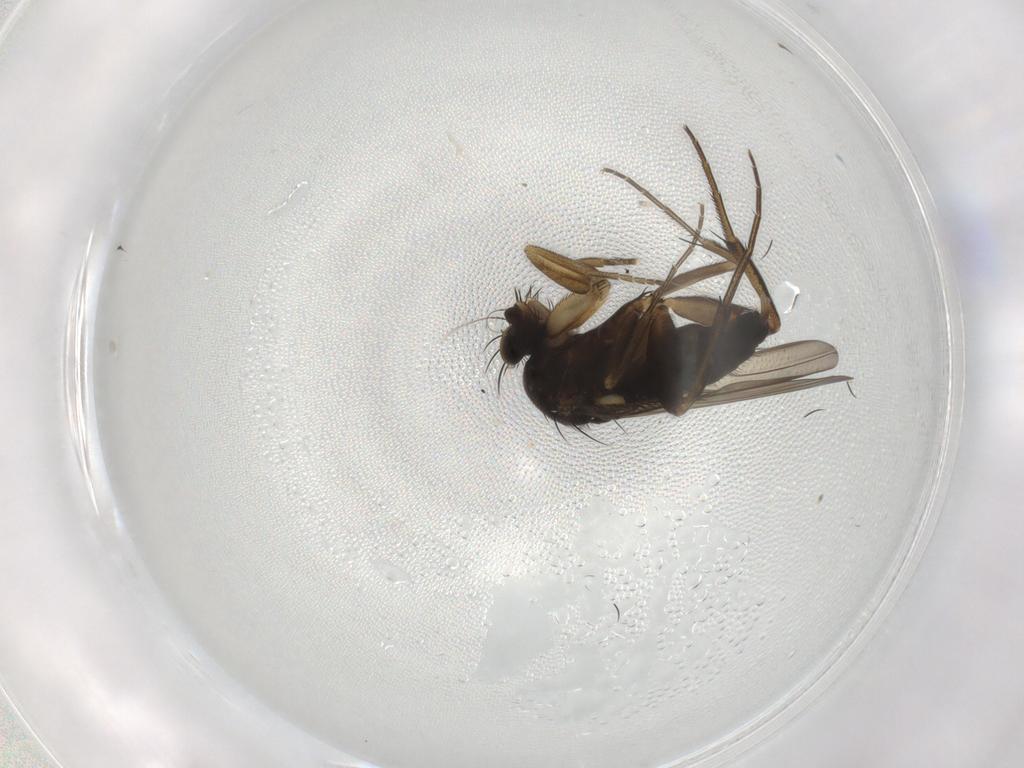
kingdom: Animalia
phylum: Arthropoda
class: Insecta
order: Diptera
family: Phoridae
